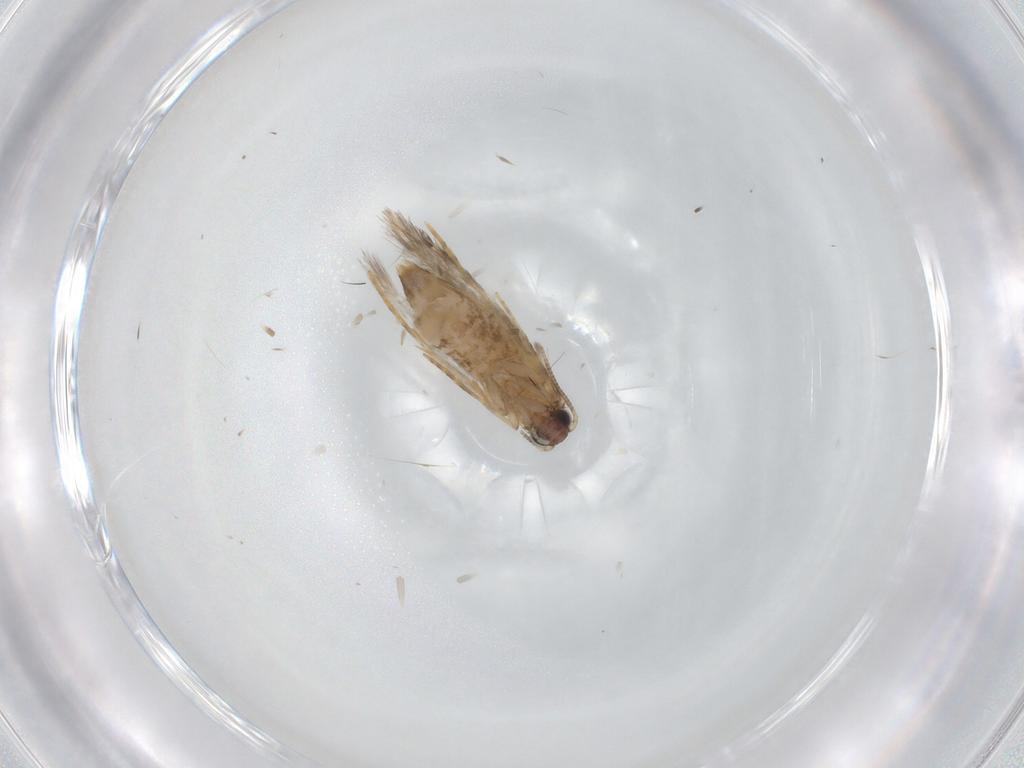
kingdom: Animalia
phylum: Arthropoda
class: Insecta
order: Lepidoptera
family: Tineidae
